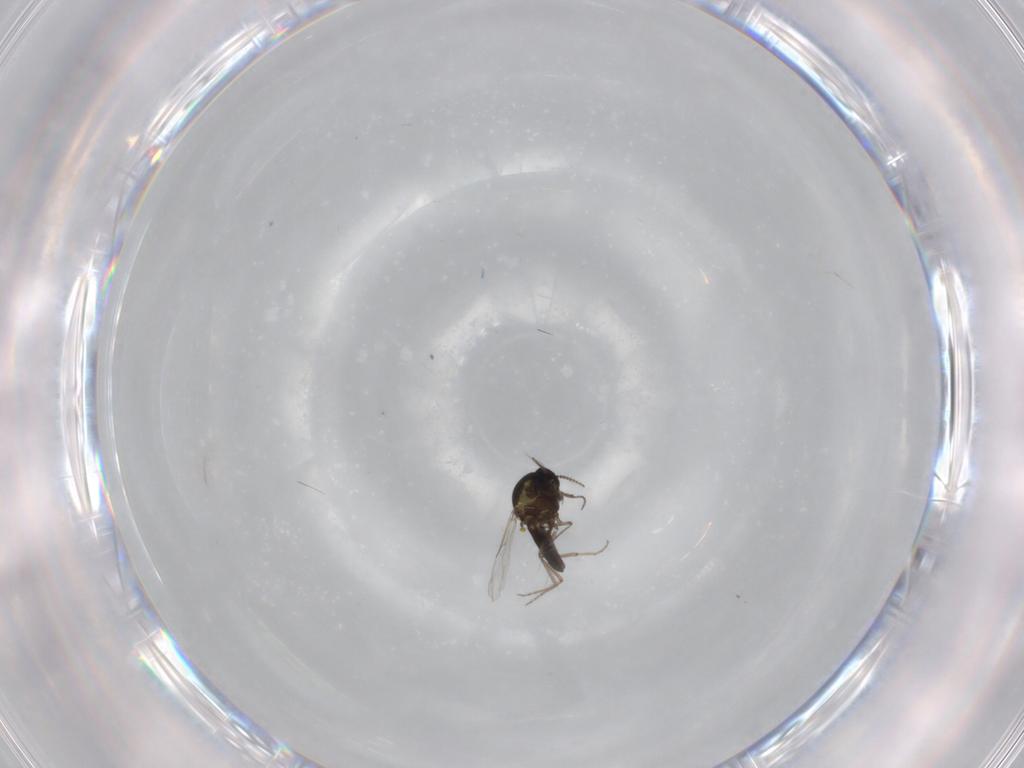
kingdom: Animalia
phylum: Arthropoda
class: Insecta
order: Diptera
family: Ceratopogonidae
